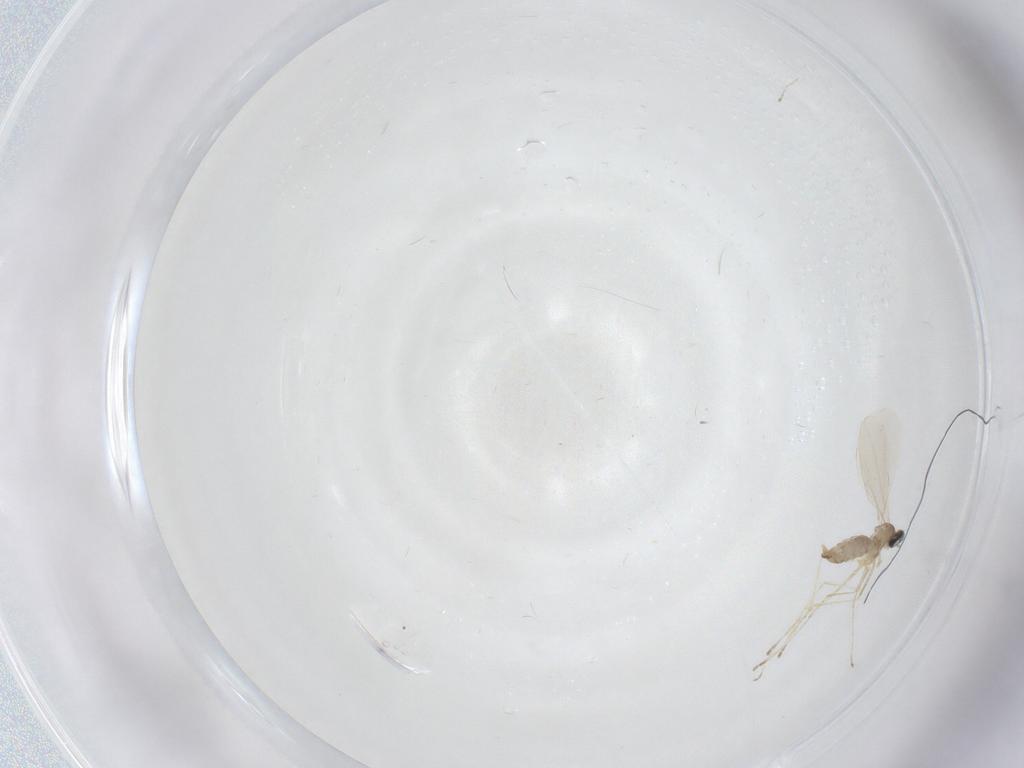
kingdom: Animalia
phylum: Arthropoda
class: Insecta
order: Diptera
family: Cecidomyiidae
